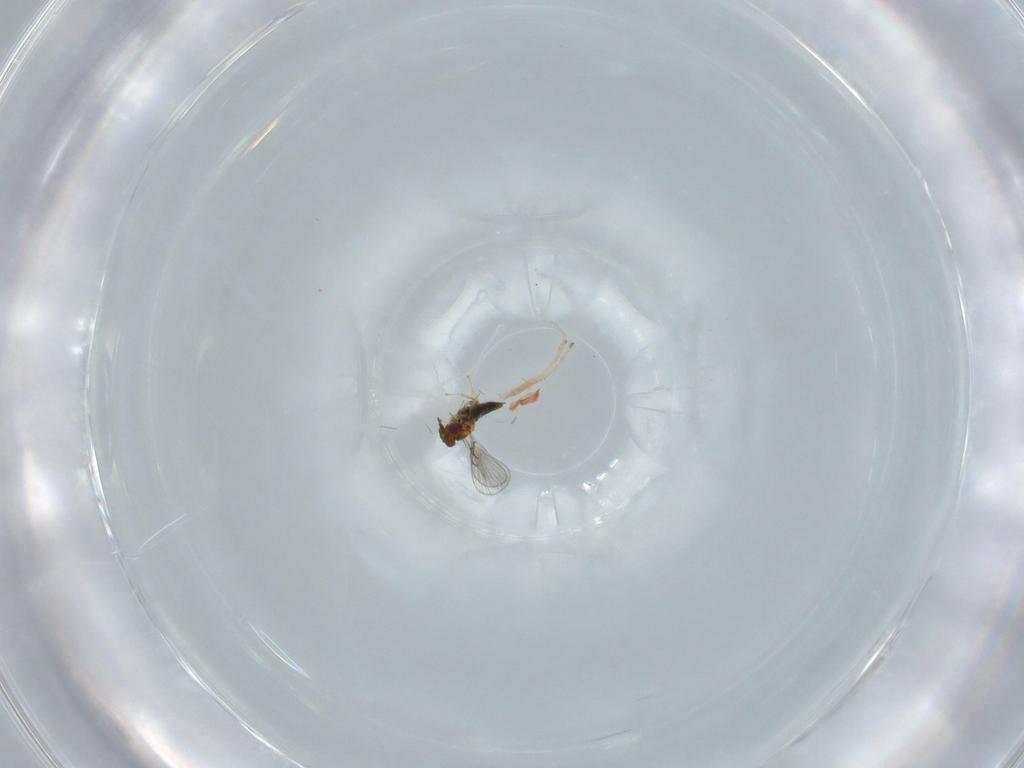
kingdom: Animalia
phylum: Arthropoda
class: Insecta
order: Hymenoptera
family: Trichogrammatidae
